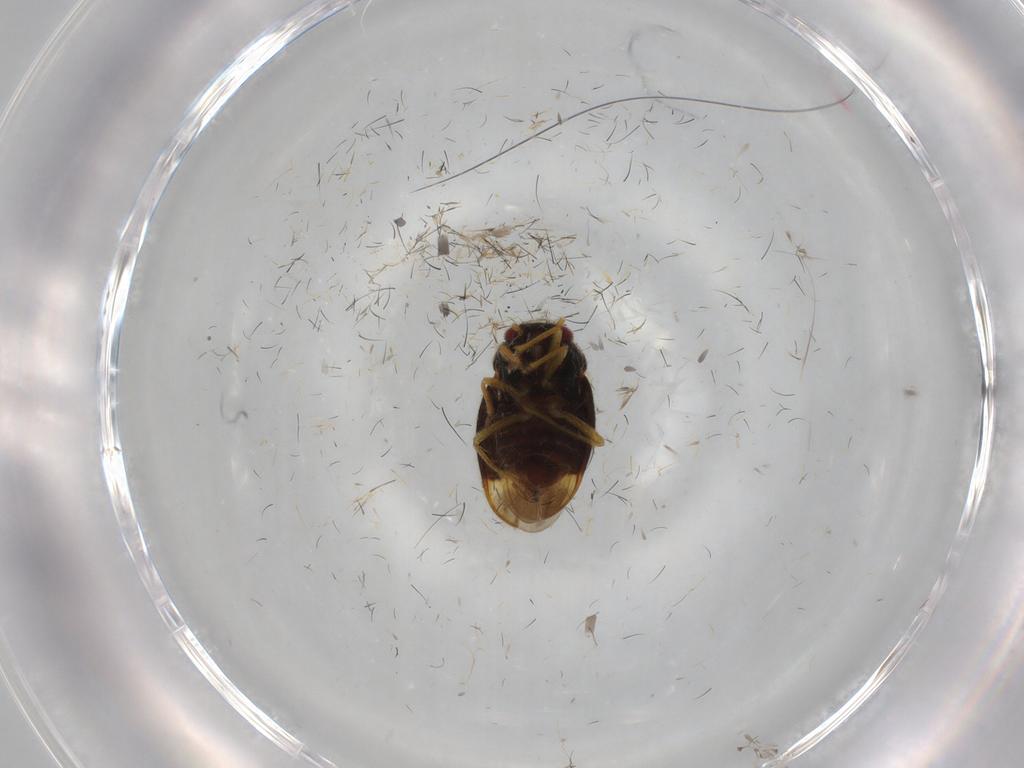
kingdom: Animalia
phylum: Arthropoda
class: Insecta
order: Hemiptera
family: Schizopteridae
